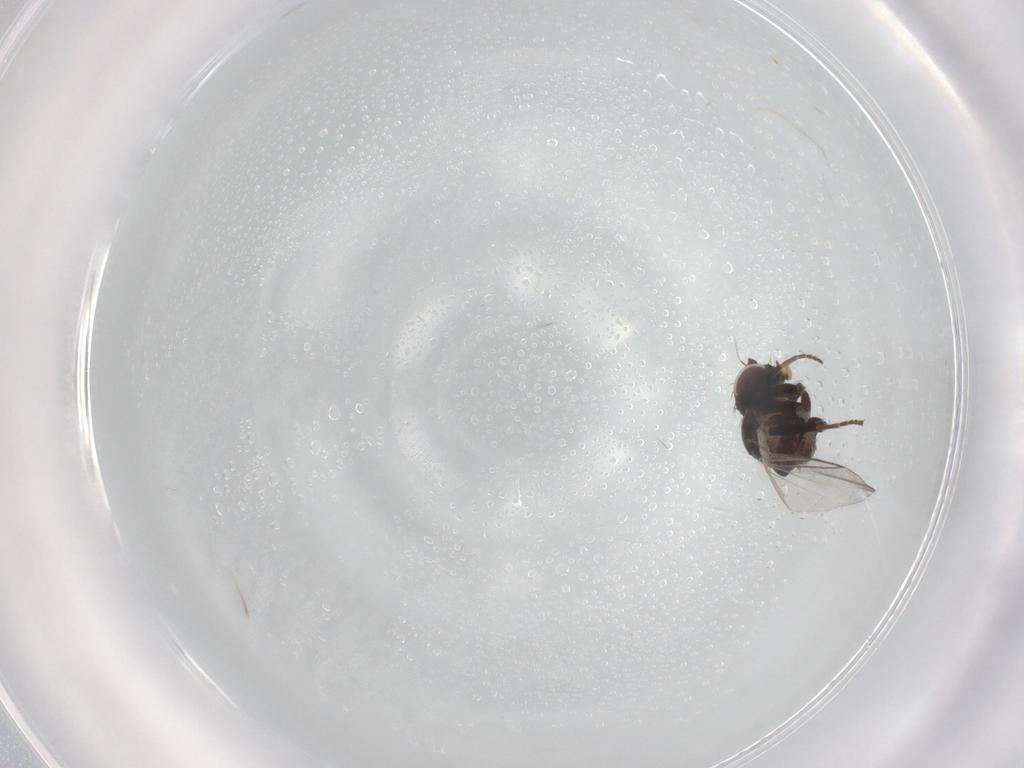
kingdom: Animalia
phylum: Arthropoda
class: Insecta
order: Diptera
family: Agromyzidae
